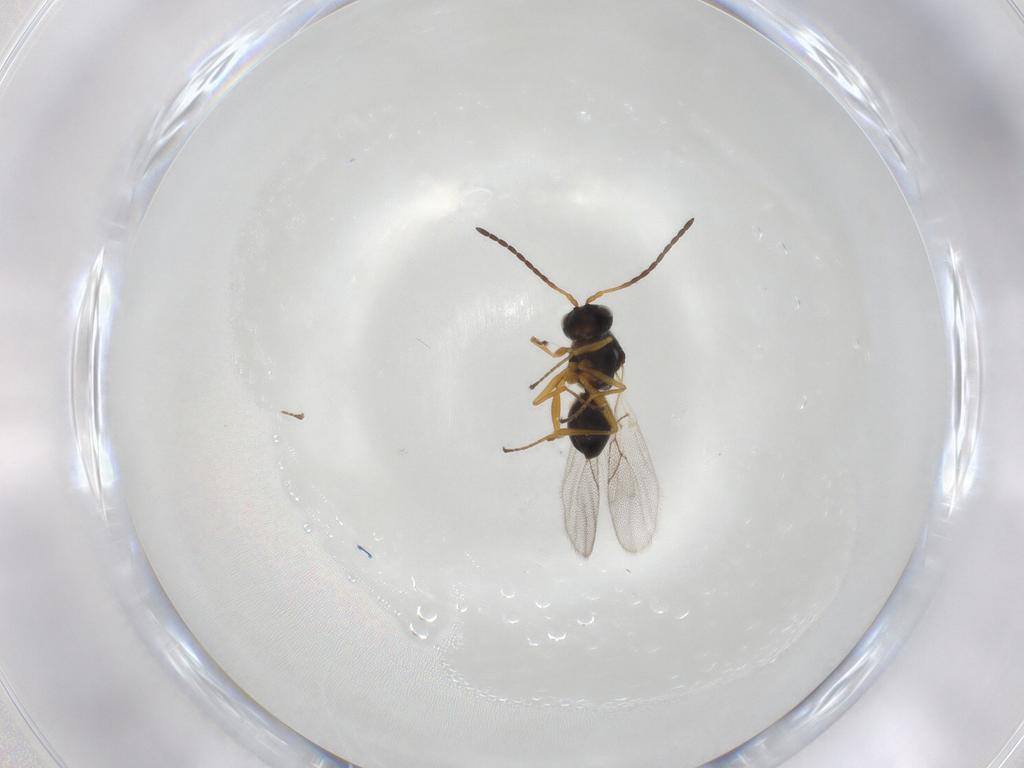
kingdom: Animalia
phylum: Arthropoda
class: Insecta
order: Hymenoptera
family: Figitidae
